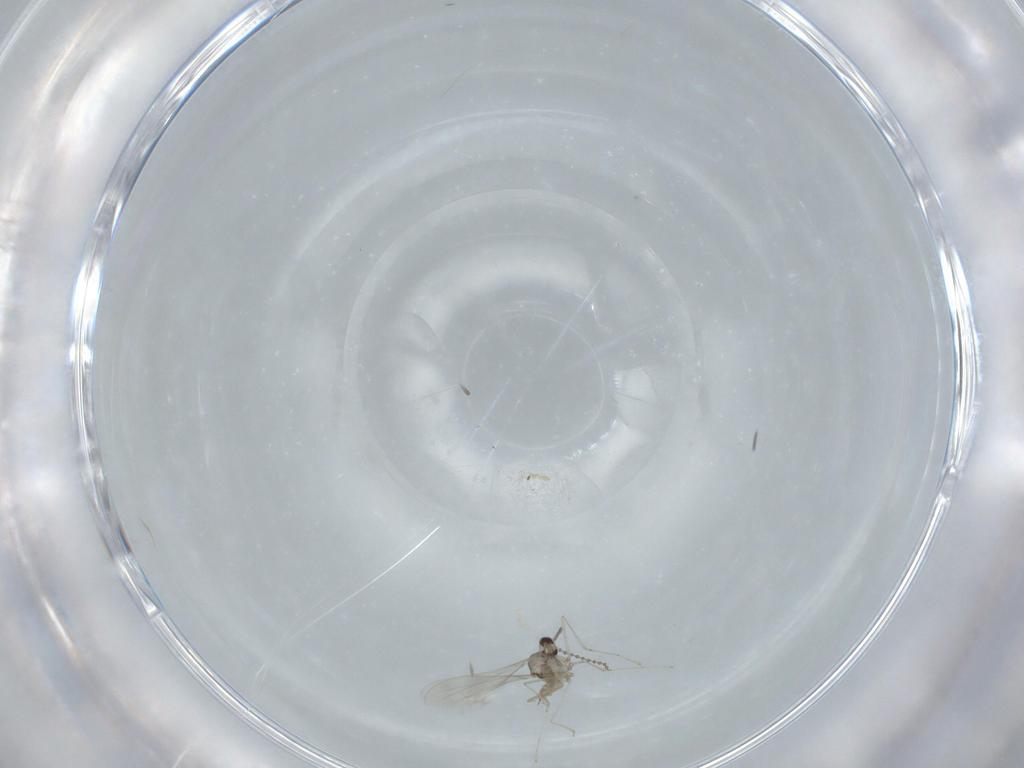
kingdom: Animalia
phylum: Arthropoda
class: Insecta
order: Diptera
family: Cecidomyiidae
